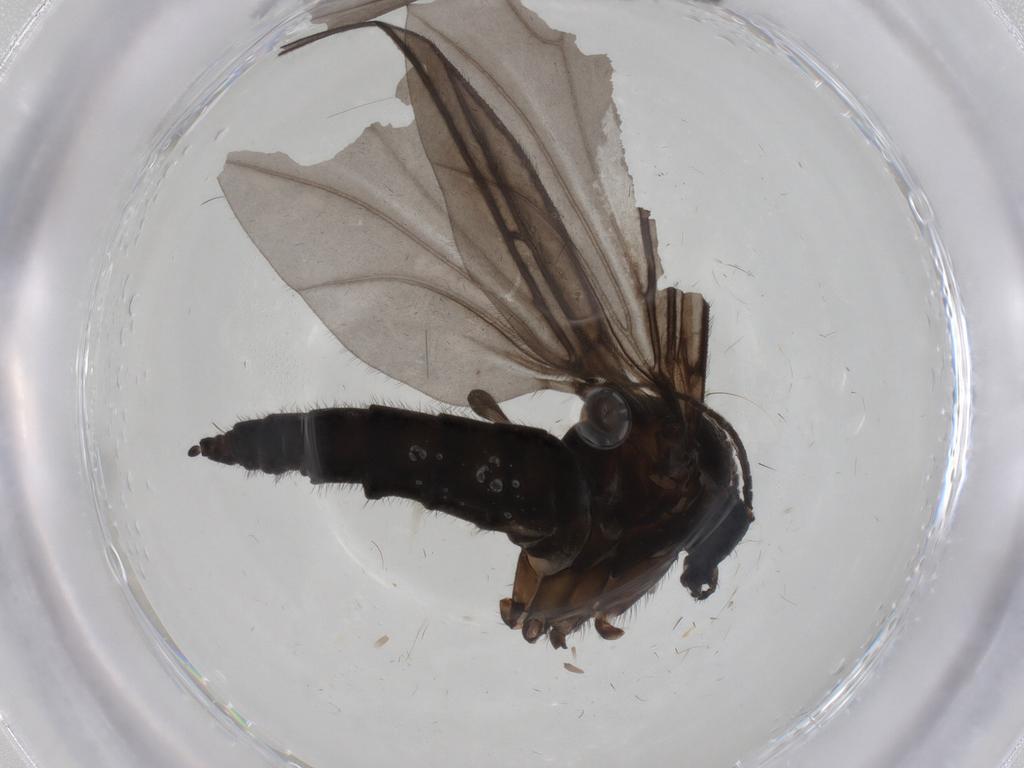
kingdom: Animalia
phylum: Arthropoda
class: Insecta
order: Diptera
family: Sciaridae
